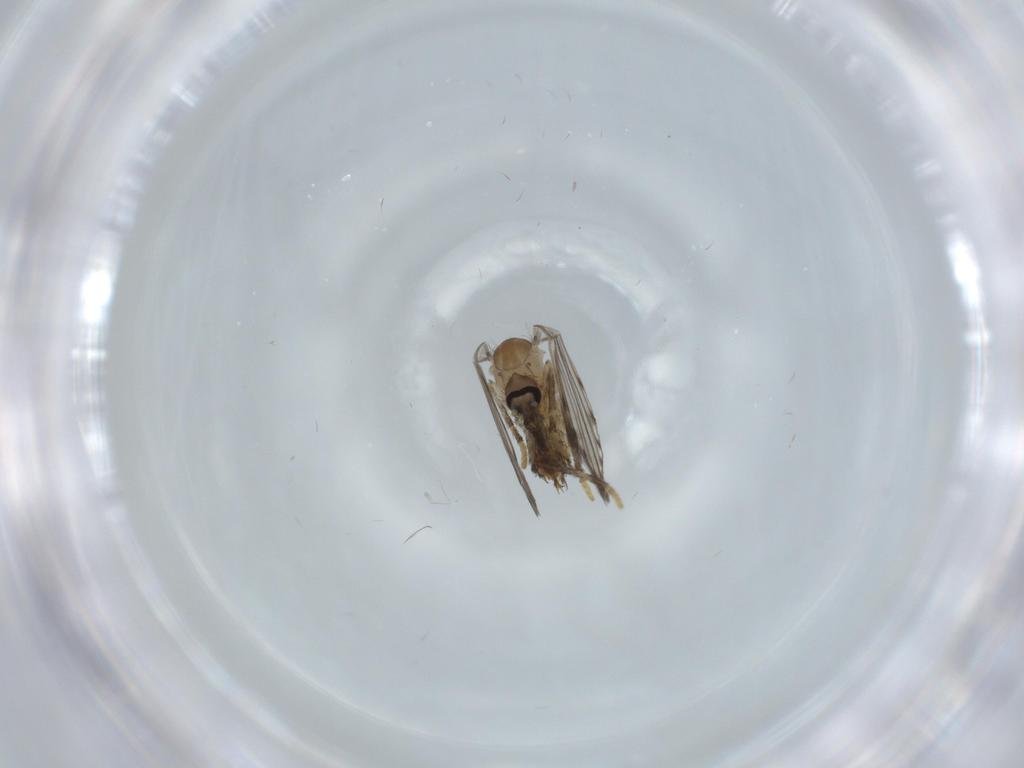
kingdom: Animalia
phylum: Arthropoda
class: Insecta
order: Diptera
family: Psychodidae
